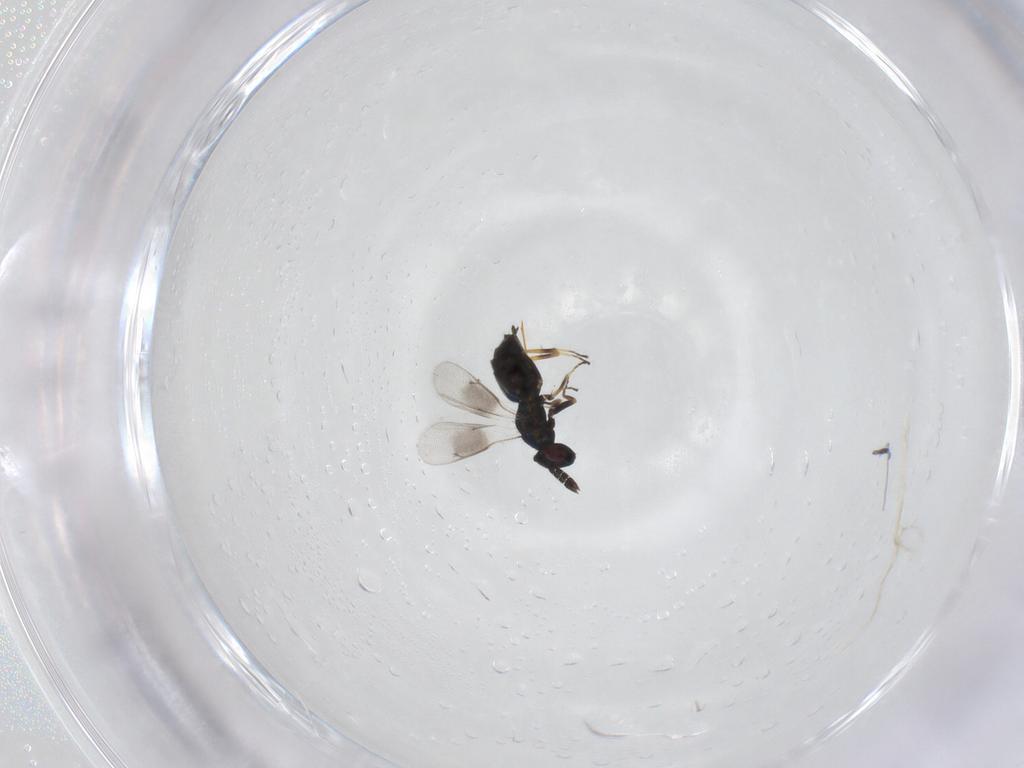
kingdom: Animalia
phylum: Arthropoda
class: Insecta
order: Hymenoptera
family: Eulophidae
